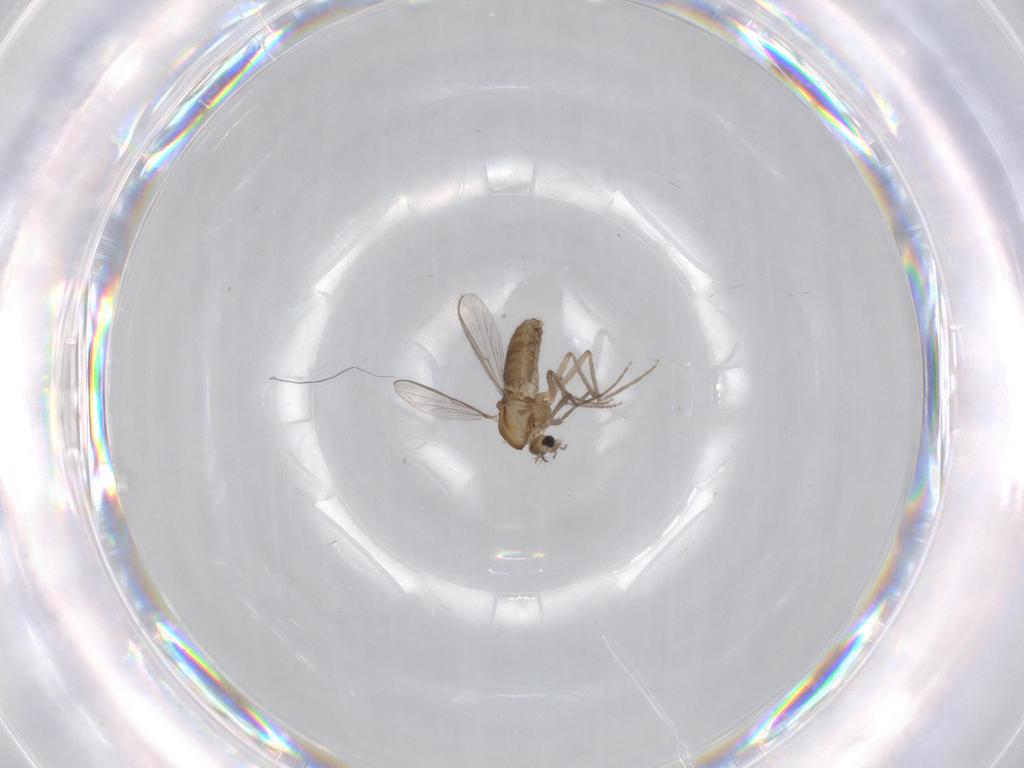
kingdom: Animalia
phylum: Arthropoda
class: Insecta
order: Diptera
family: Chironomidae
